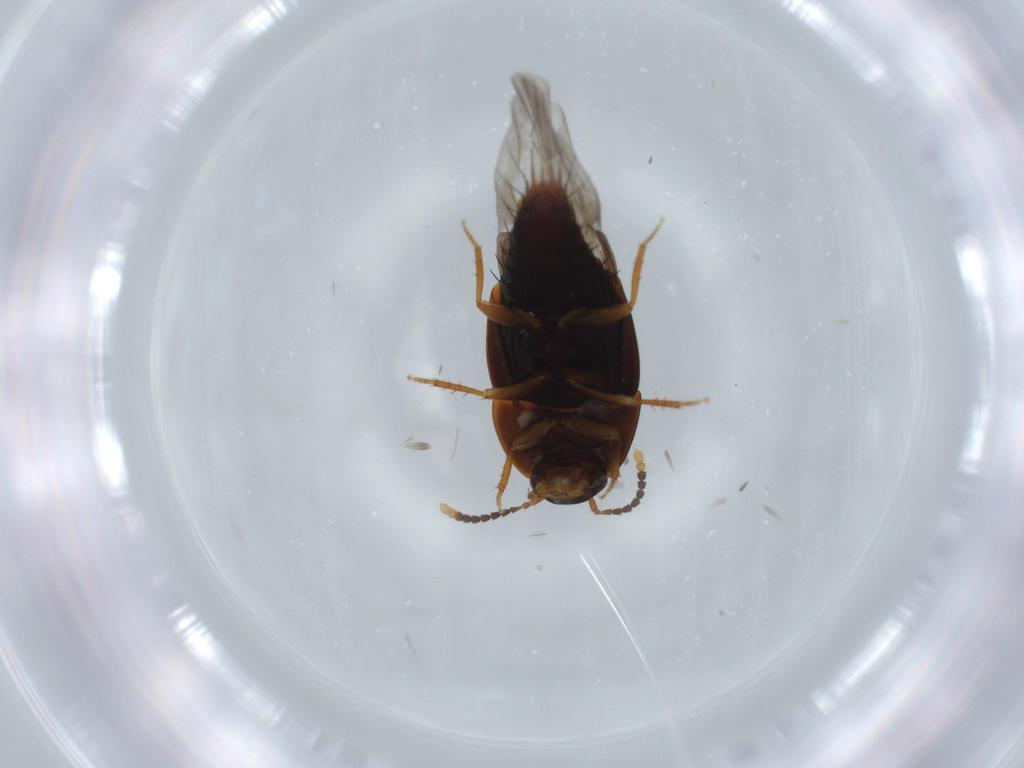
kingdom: Animalia
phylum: Arthropoda
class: Insecta
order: Coleoptera
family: Staphylinidae
